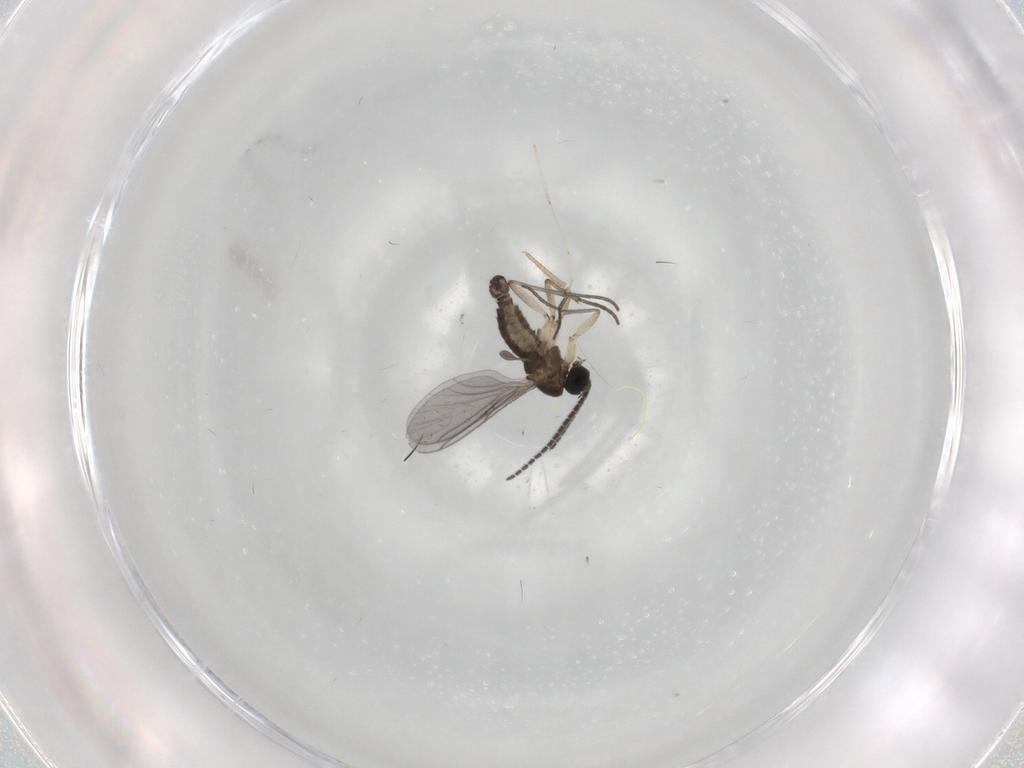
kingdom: Animalia
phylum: Arthropoda
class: Insecta
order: Diptera
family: Sciaridae
